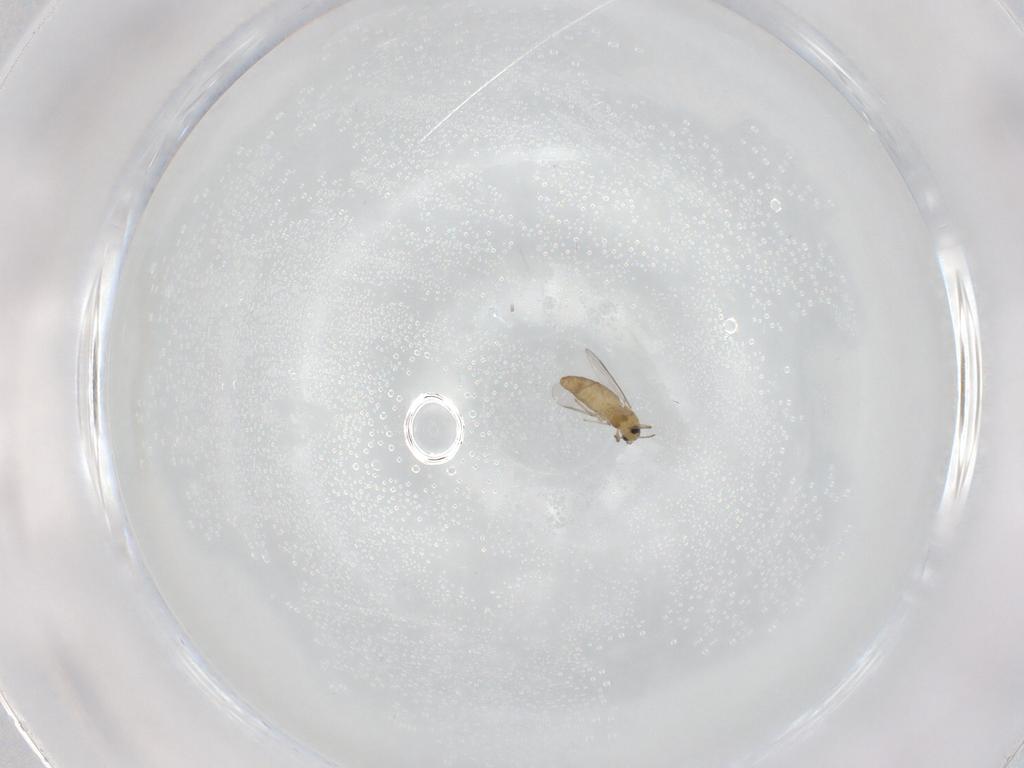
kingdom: Animalia
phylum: Arthropoda
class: Insecta
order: Diptera
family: Chironomidae
